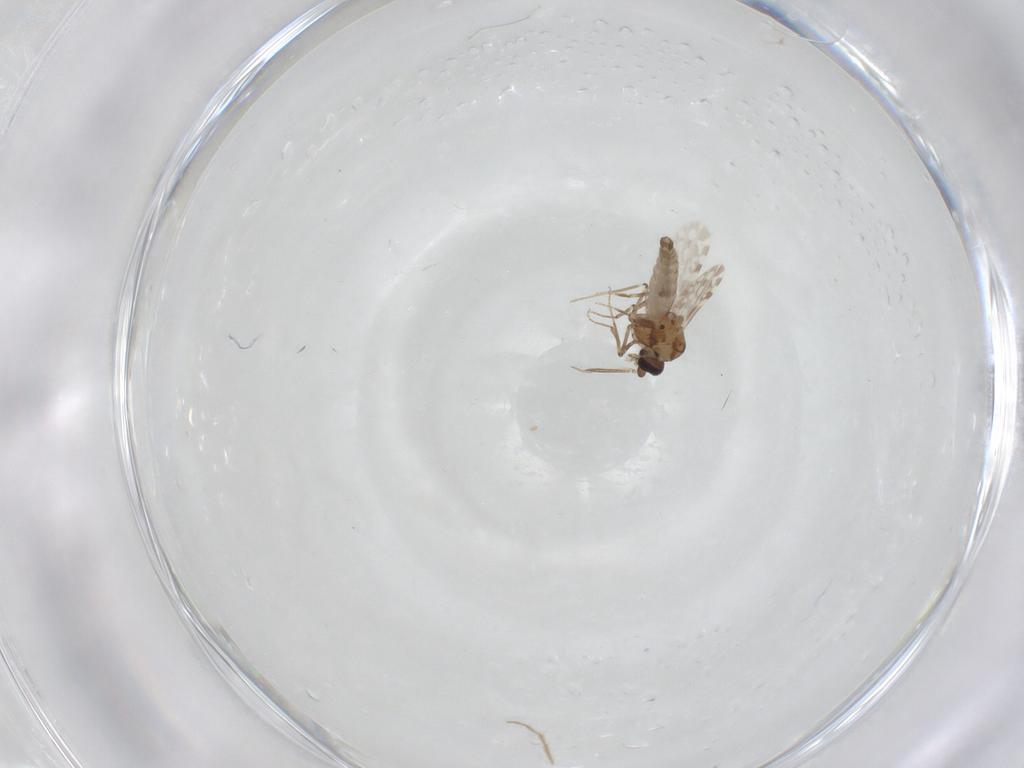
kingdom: Animalia
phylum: Arthropoda
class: Insecta
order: Diptera
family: Chironomidae
